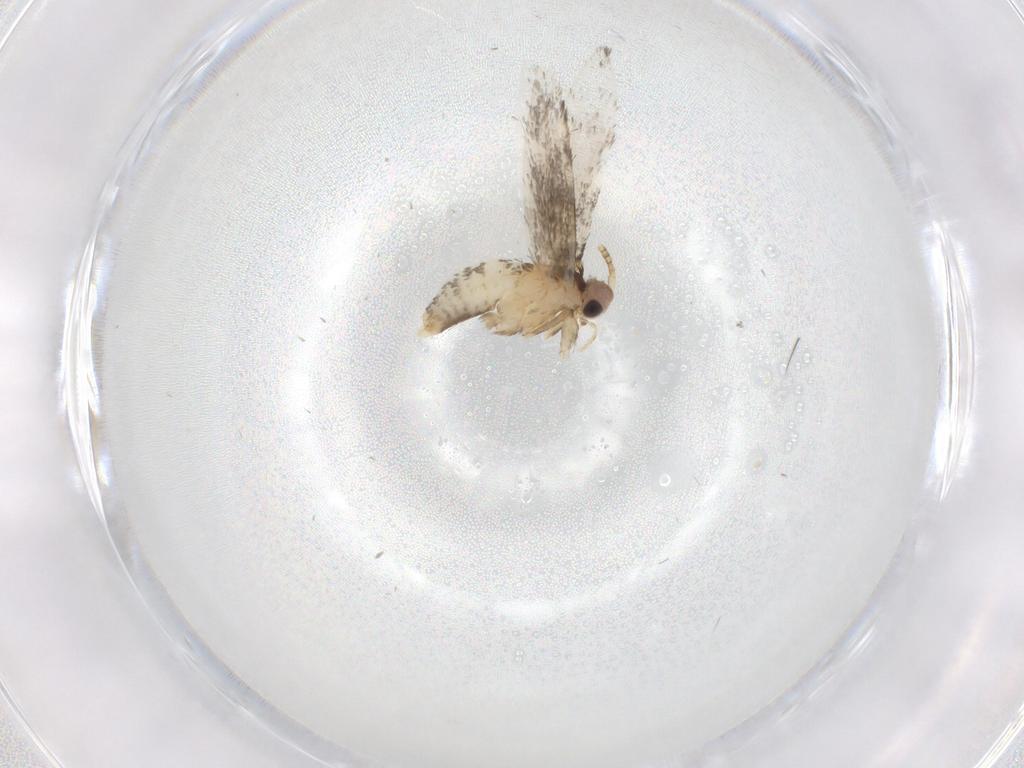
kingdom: Animalia
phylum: Arthropoda
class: Insecta
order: Lepidoptera
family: Tineidae
